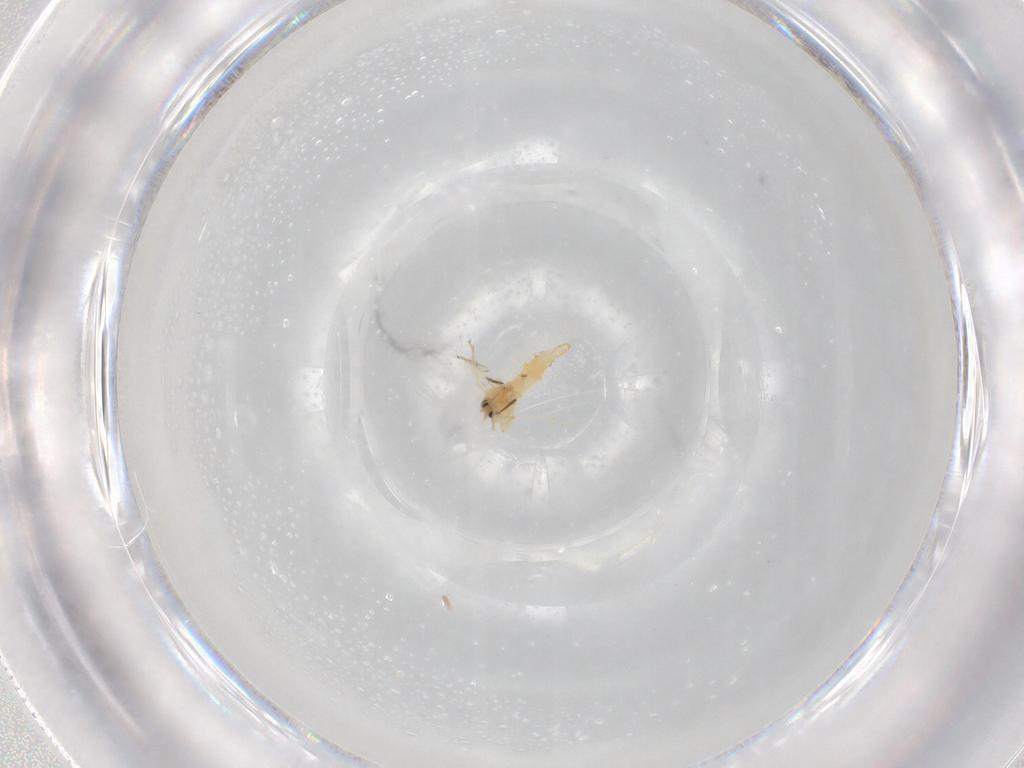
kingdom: Animalia
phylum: Arthropoda
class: Insecta
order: Hemiptera
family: Aleyrodidae
